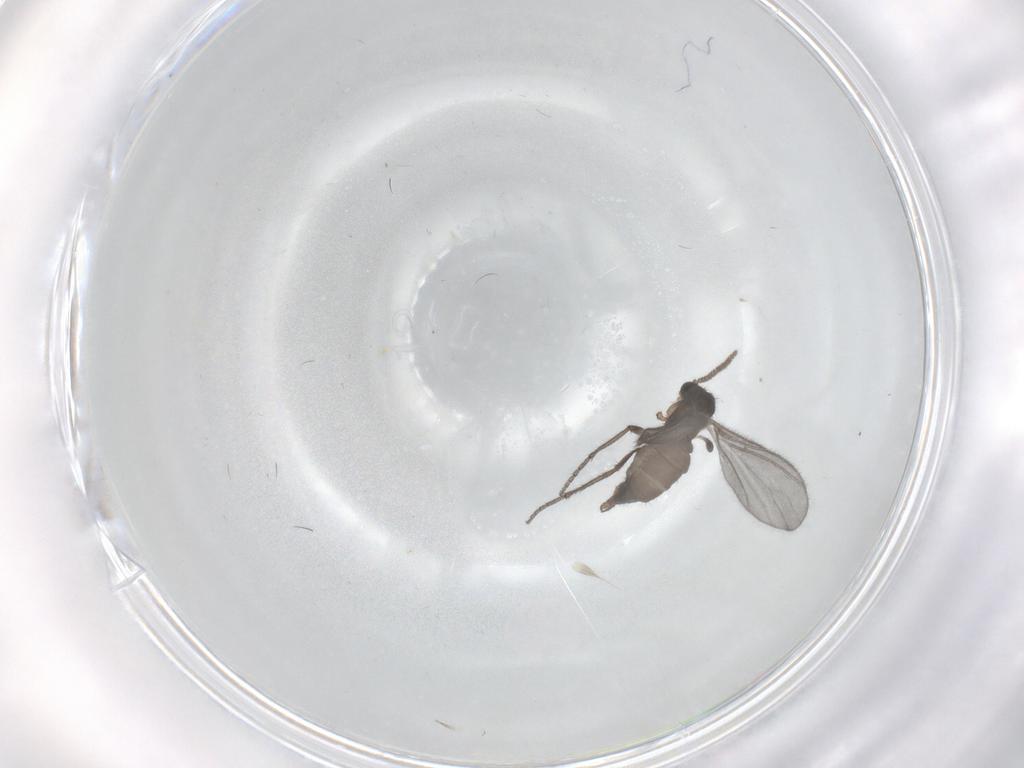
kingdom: Animalia
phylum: Arthropoda
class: Insecta
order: Diptera
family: Sciaridae
